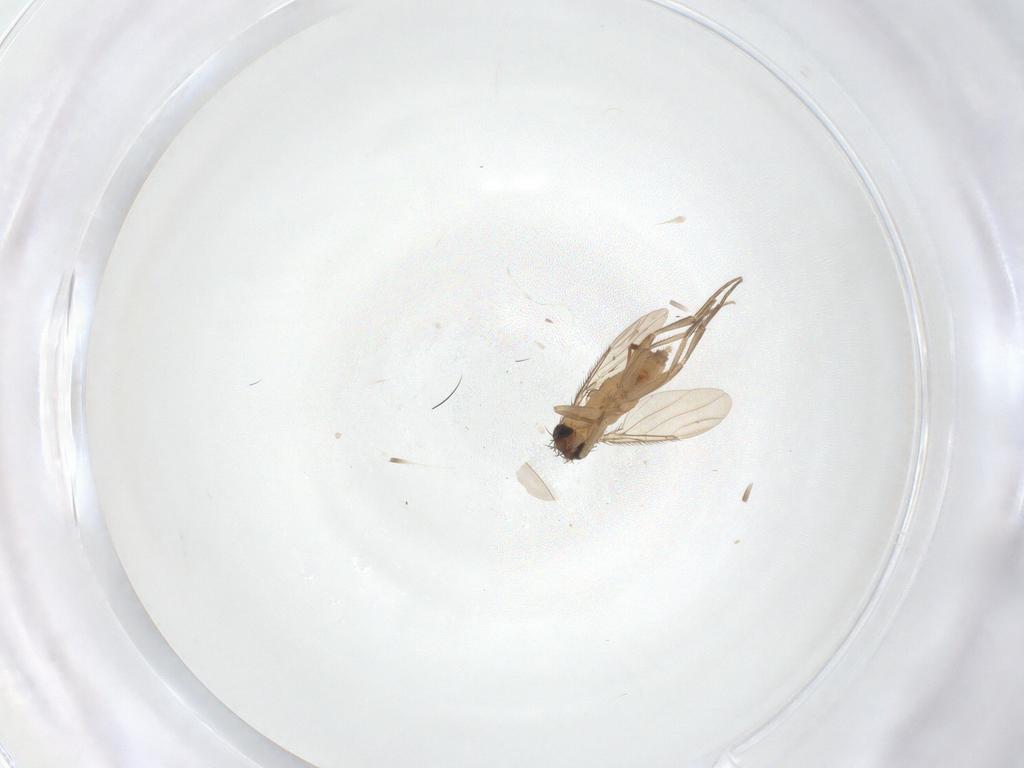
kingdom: Animalia
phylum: Arthropoda
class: Insecta
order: Diptera
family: Phoridae
